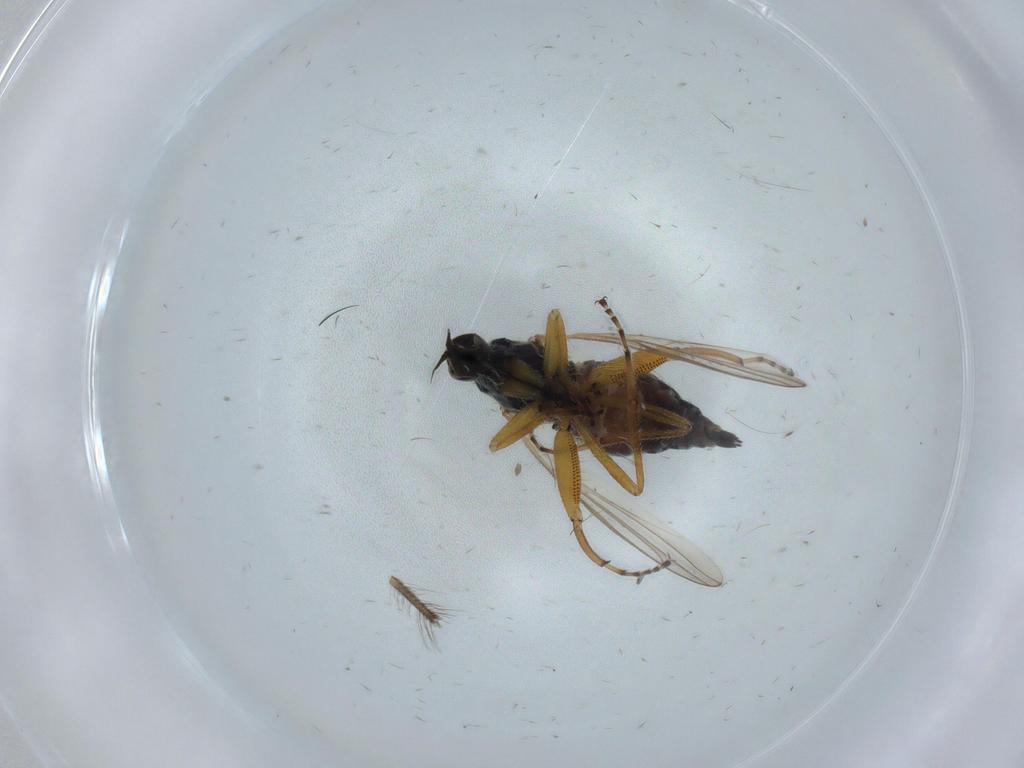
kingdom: Animalia
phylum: Arthropoda
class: Insecta
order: Diptera
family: Hybotidae
